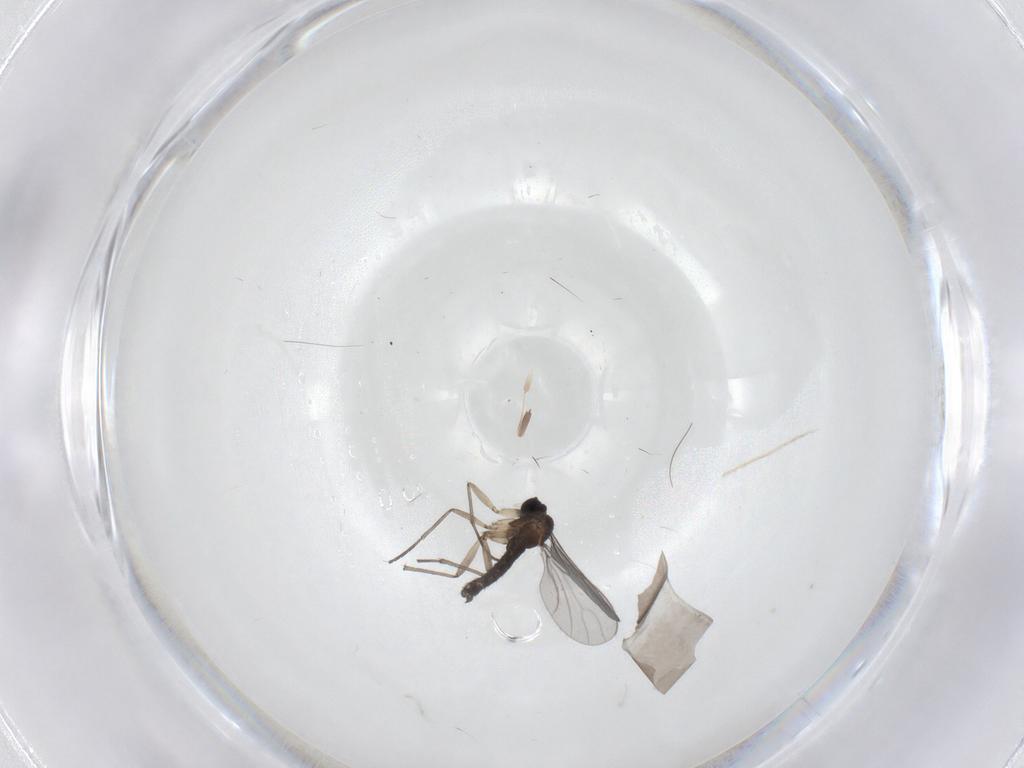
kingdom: Animalia
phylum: Arthropoda
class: Insecta
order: Diptera
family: Sciaridae
